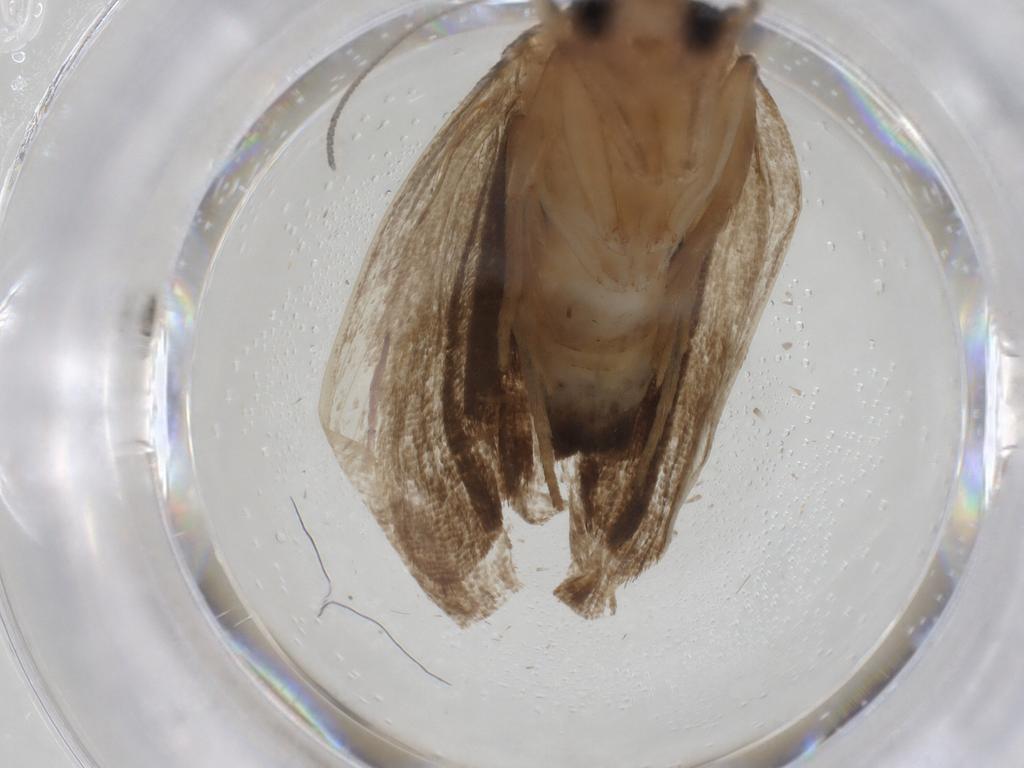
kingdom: Animalia
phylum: Arthropoda
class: Insecta
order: Lepidoptera
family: Immidae
